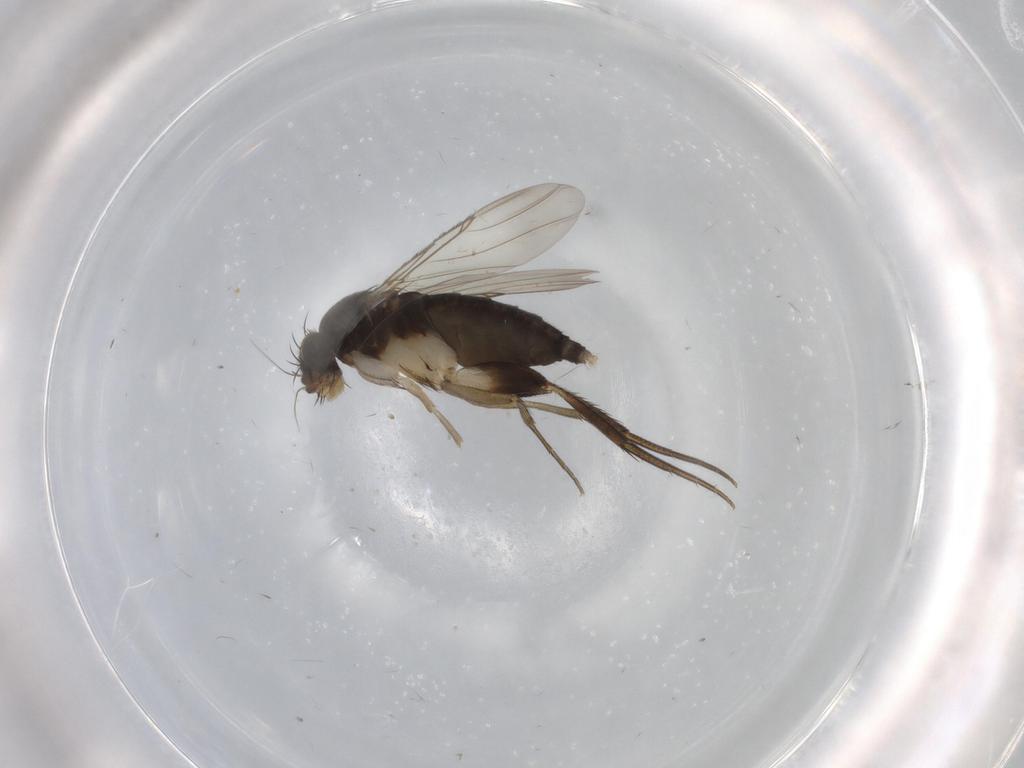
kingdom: Animalia
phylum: Arthropoda
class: Insecta
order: Diptera
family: Phoridae
